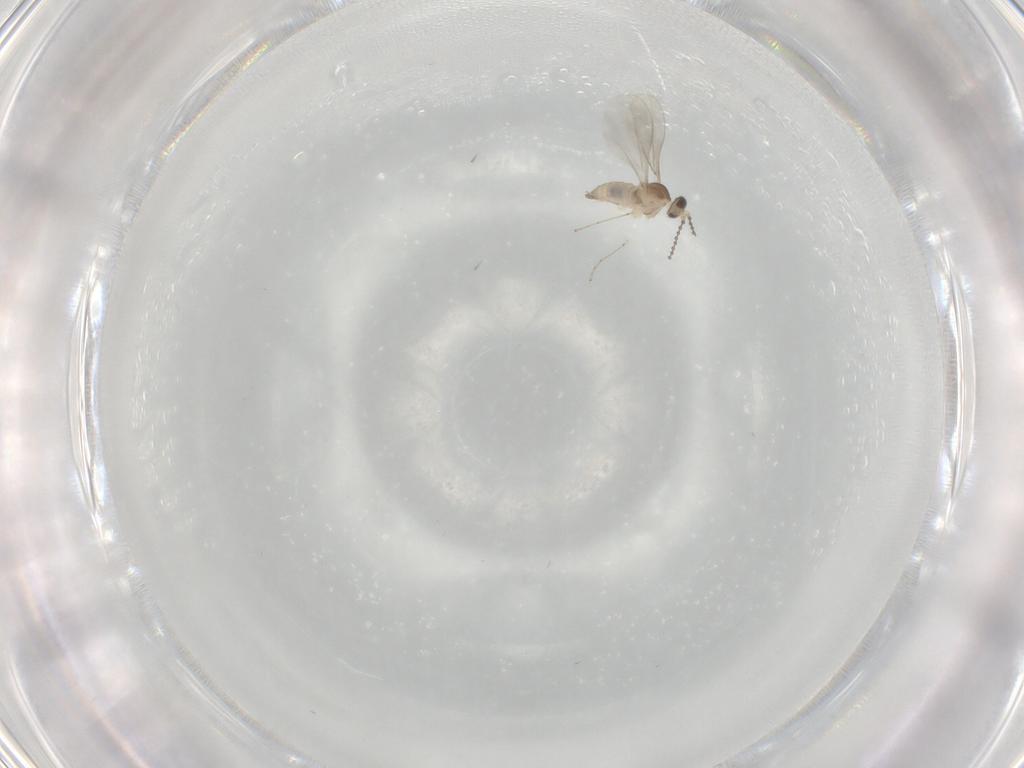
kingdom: Animalia
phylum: Arthropoda
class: Insecta
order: Diptera
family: Cecidomyiidae
